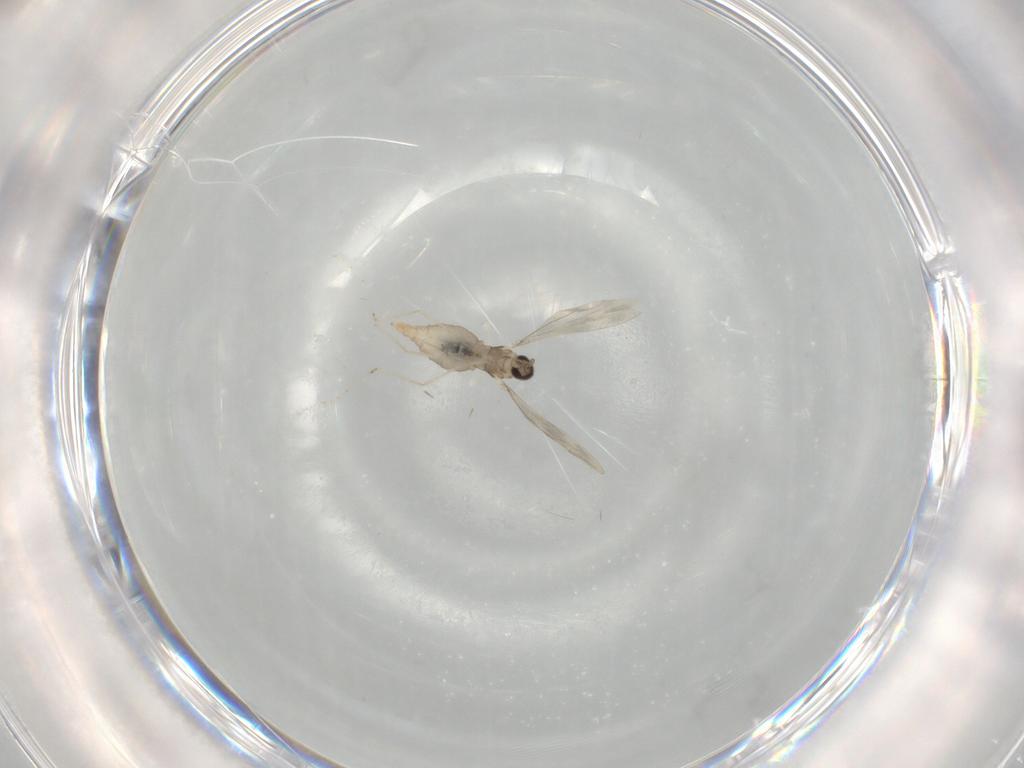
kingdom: Animalia
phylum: Arthropoda
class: Insecta
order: Diptera
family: Cecidomyiidae
